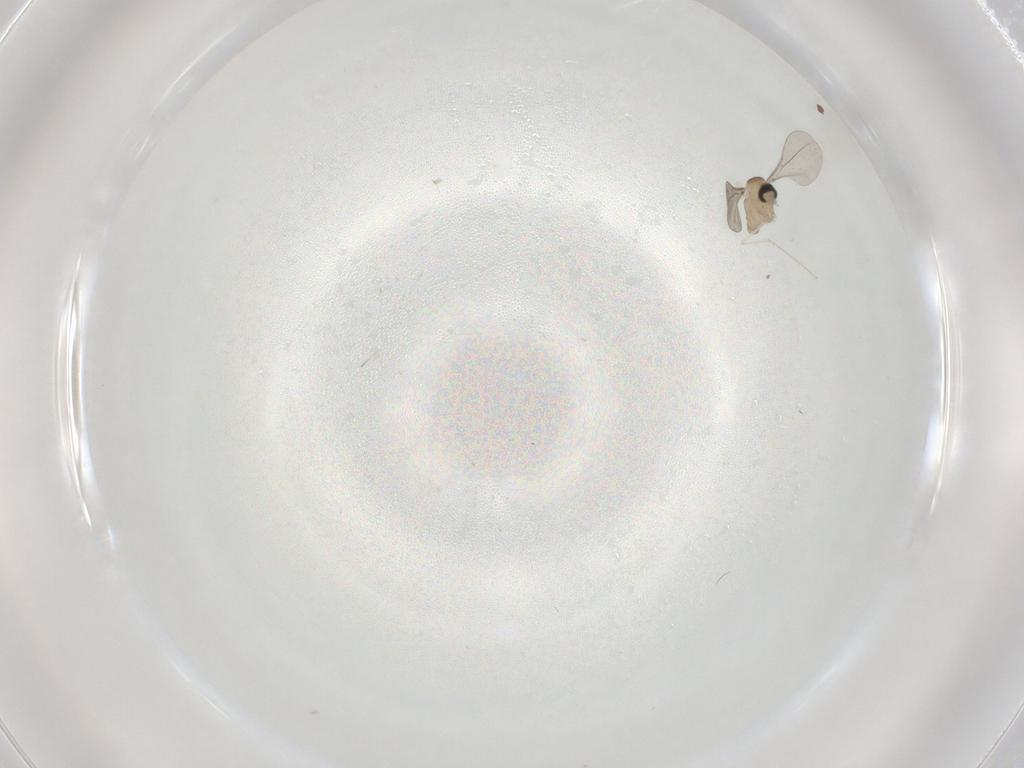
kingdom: Animalia
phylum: Arthropoda
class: Insecta
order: Diptera
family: Cecidomyiidae
